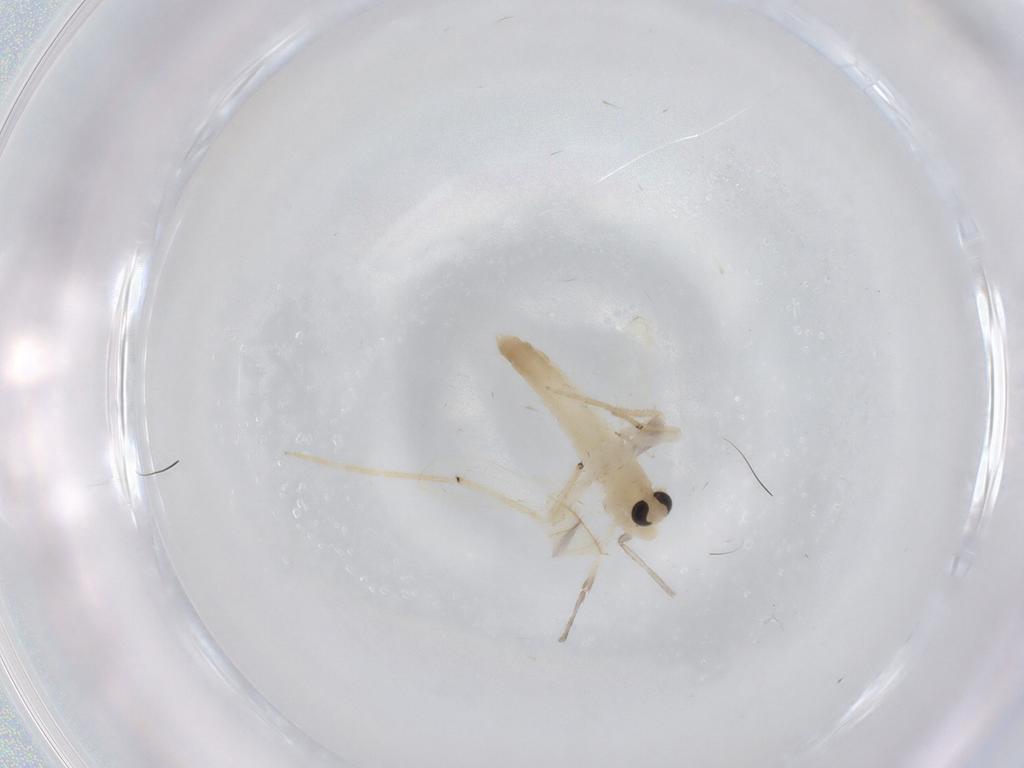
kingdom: Animalia
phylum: Arthropoda
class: Insecta
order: Diptera
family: Chironomidae
